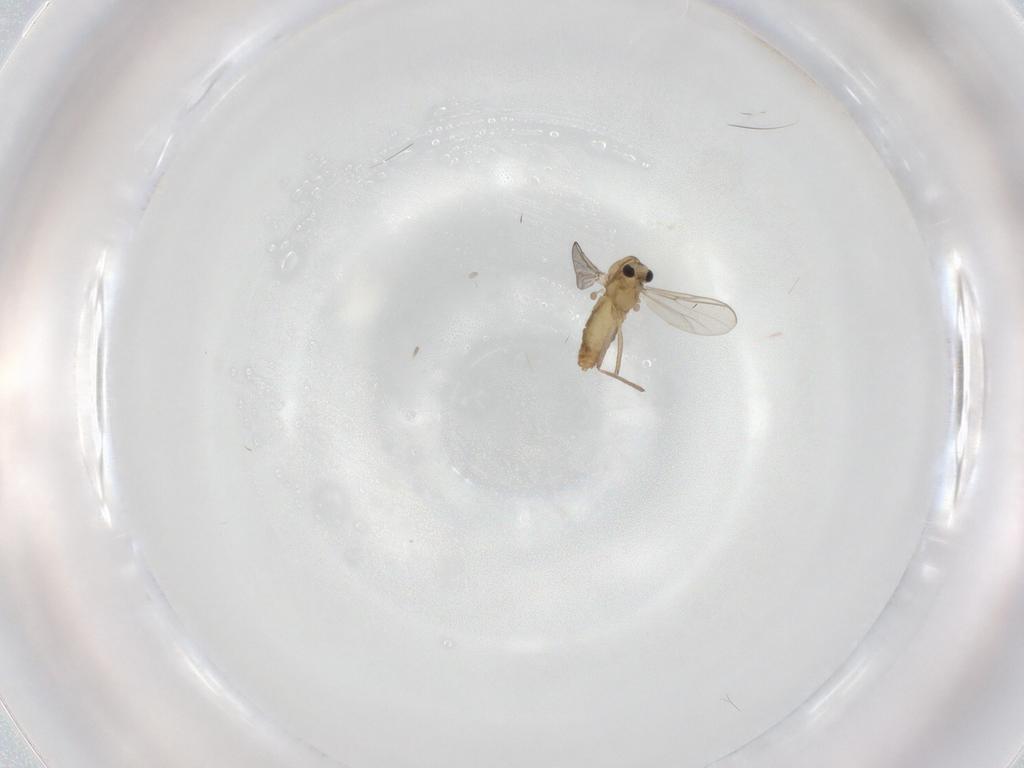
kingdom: Animalia
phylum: Arthropoda
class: Insecta
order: Diptera
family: Chironomidae
